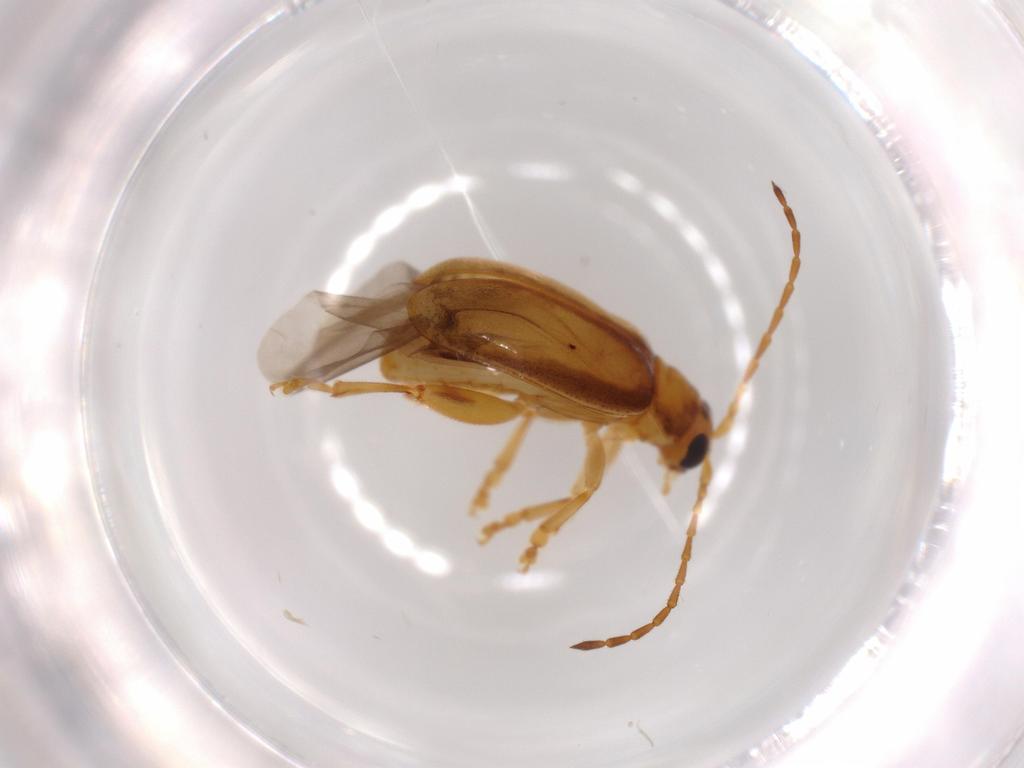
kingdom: Animalia
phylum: Arthropoda
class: Insecta
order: Coleoptera
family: Chrysomelidae
